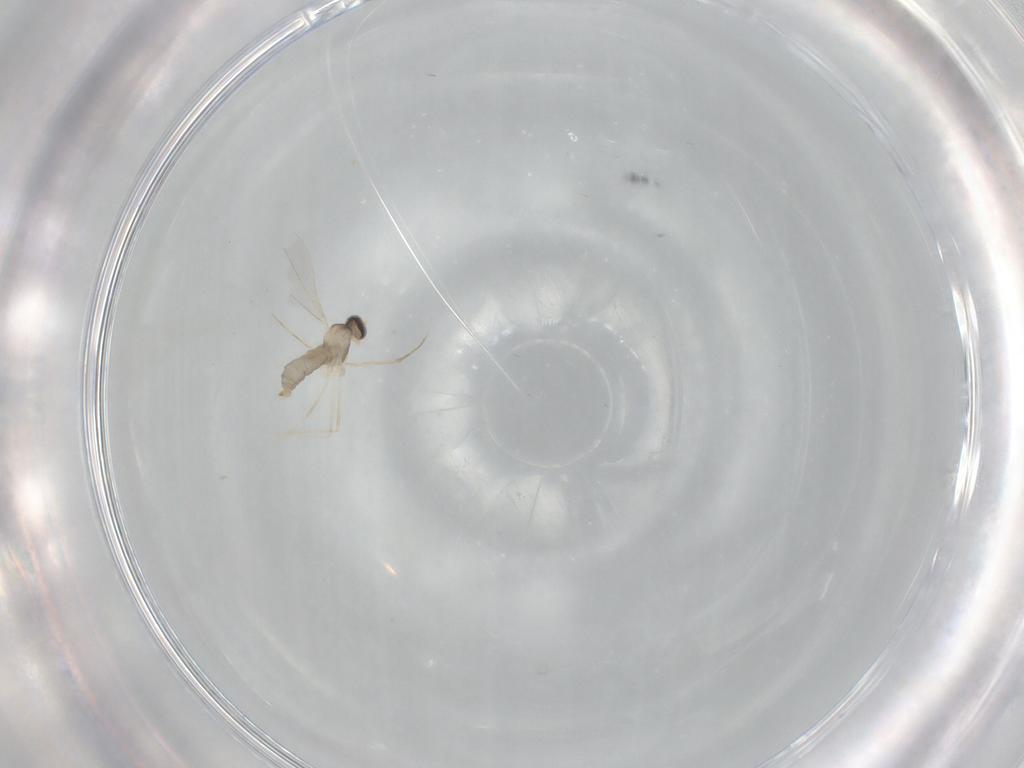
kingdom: Animalia
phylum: Arthropoda
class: Insecta
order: Diptera
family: Cecidomyiidae
